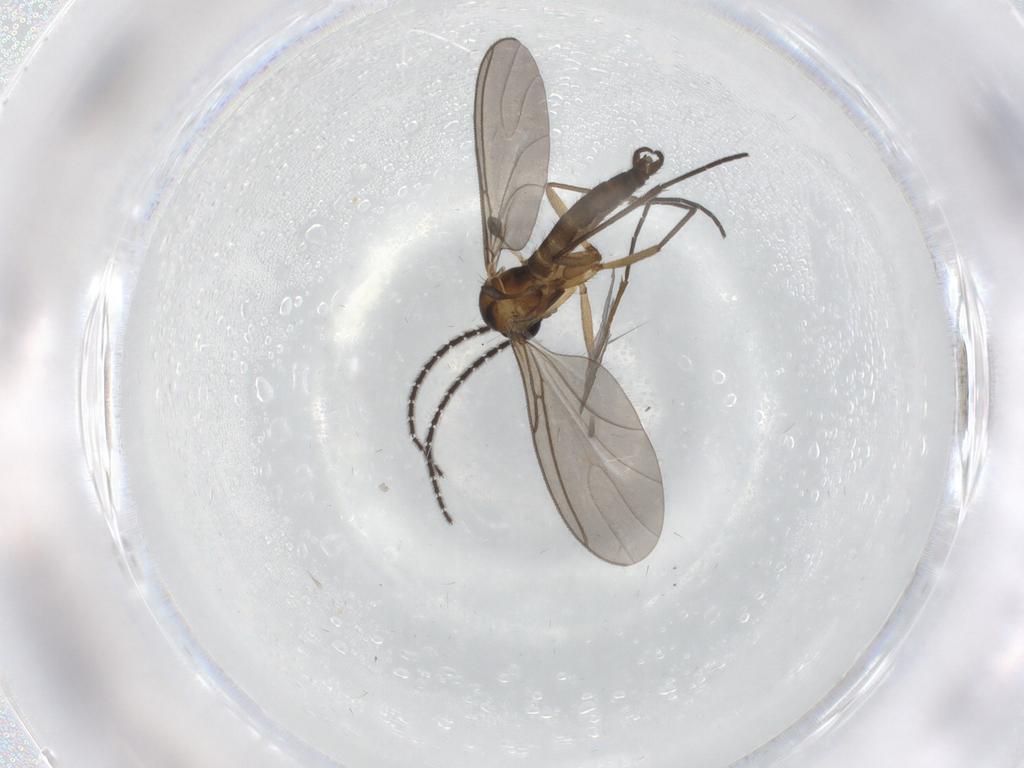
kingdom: Animalia
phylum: Arthropoda
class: Insecta
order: Diptera
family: Sciaridae
